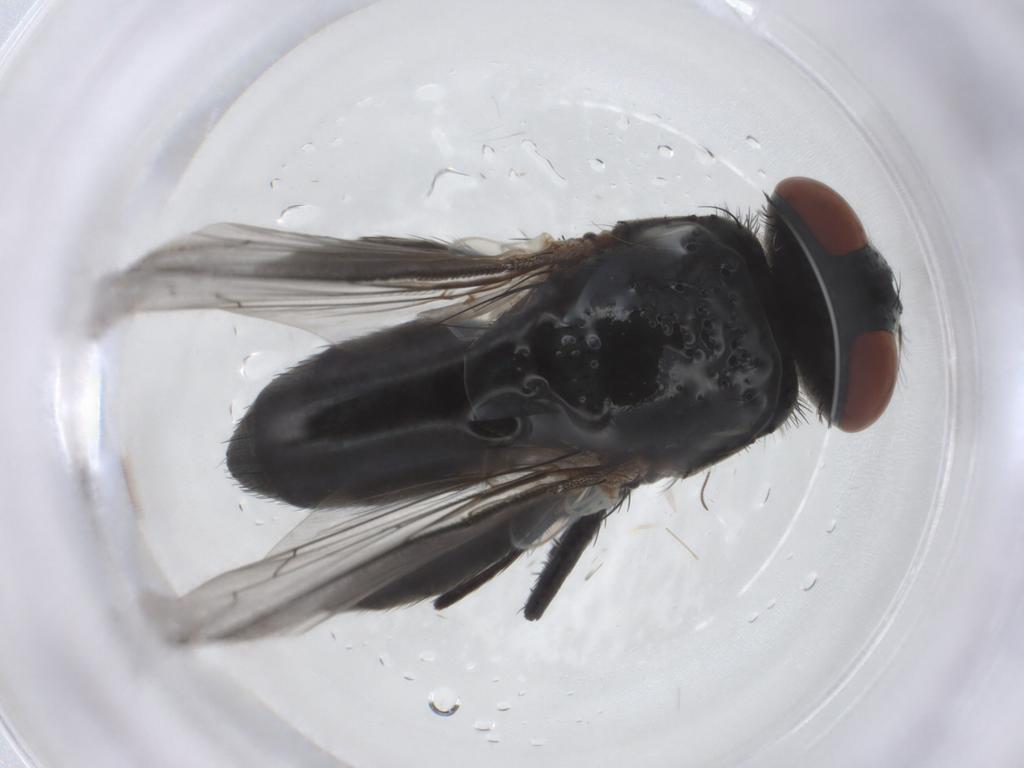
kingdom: Animalia
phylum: Arthropoda
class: Insecta
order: Diptera
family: Sarcophagidae
